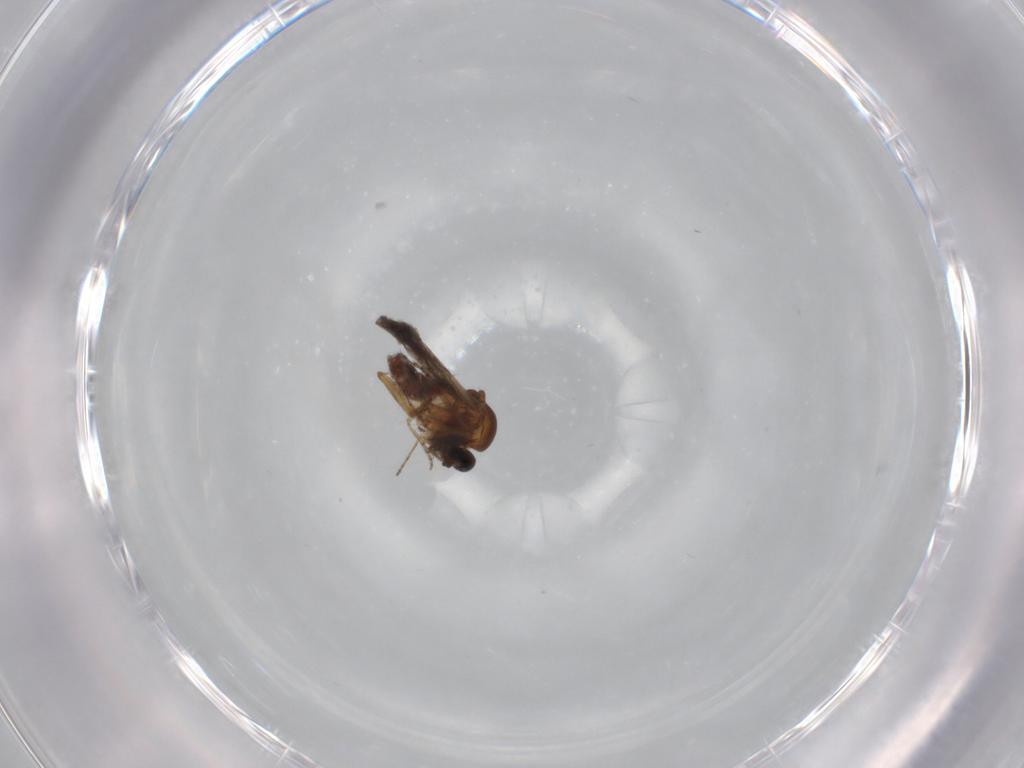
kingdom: Animalia
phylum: Arthropoda
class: Insecta
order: Diptera
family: Ceratopogonidae
